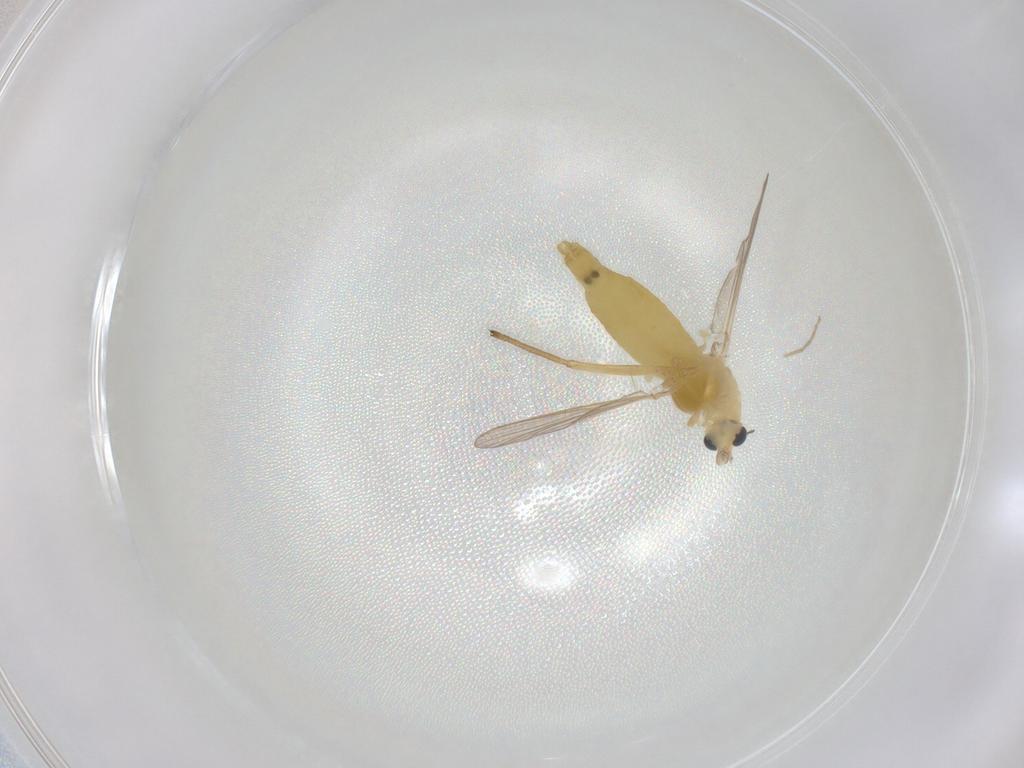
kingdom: Animalia
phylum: Arthropoda
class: Insecta
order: Diptera
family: Chironomidae
